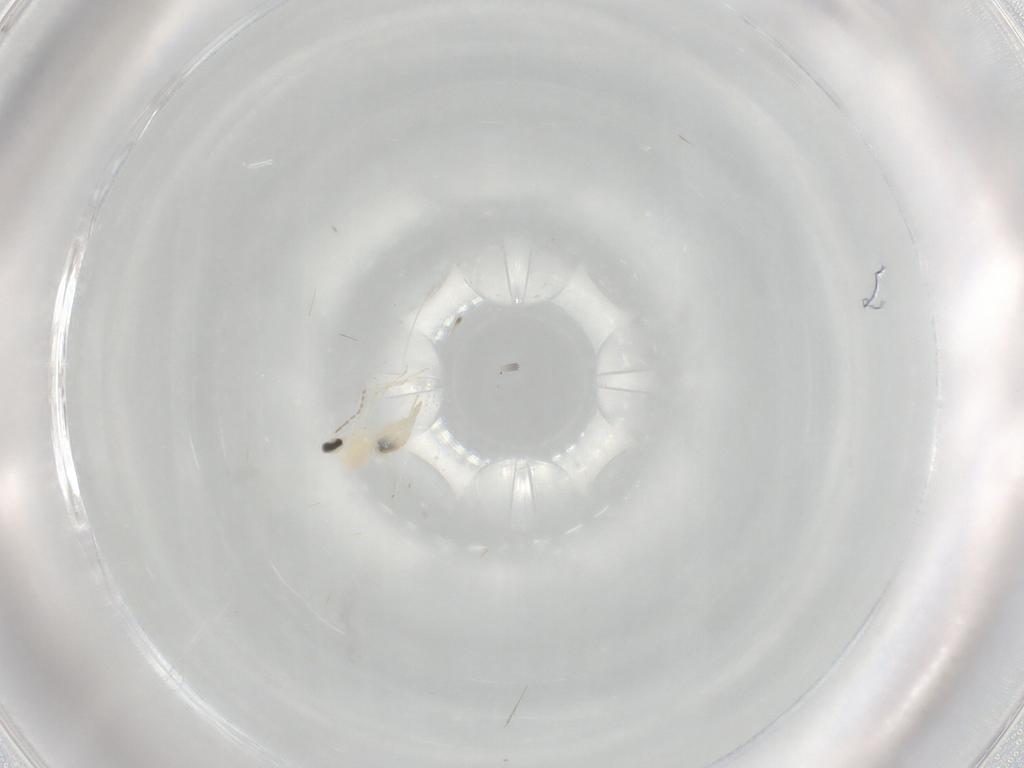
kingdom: Animalia
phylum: Arthropoda
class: Insecta
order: Diptera
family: Cecidomyiidae
